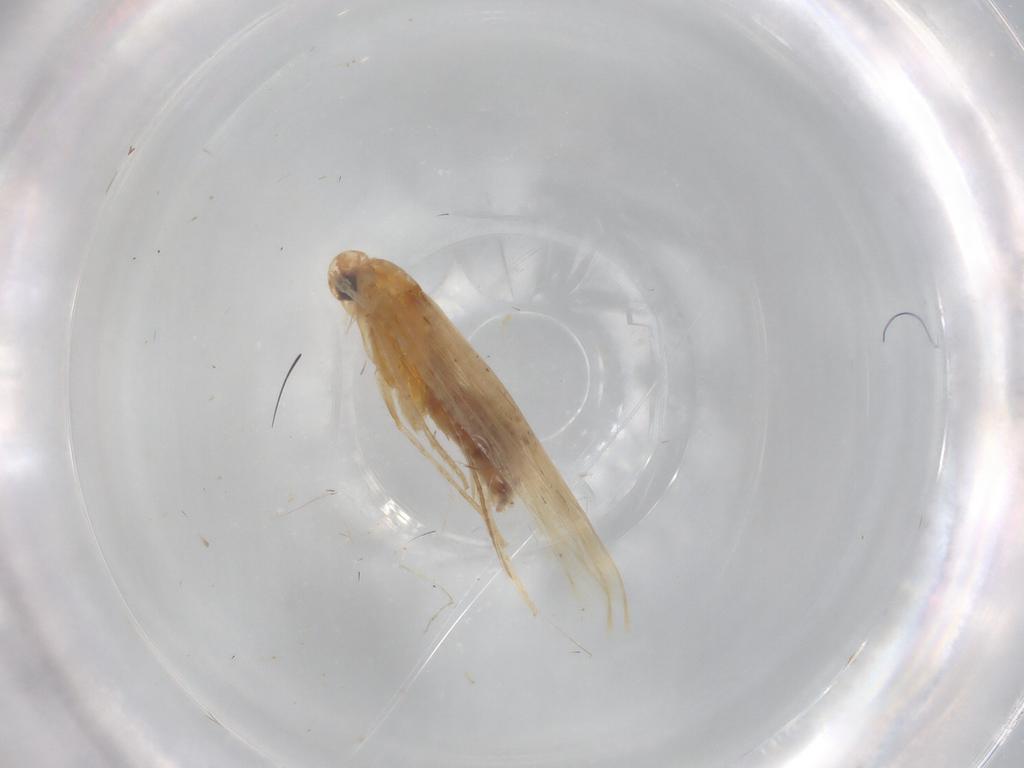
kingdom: Animalia
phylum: Arthropoda
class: Insecta
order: Lepidoptera
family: Coleophoridae
